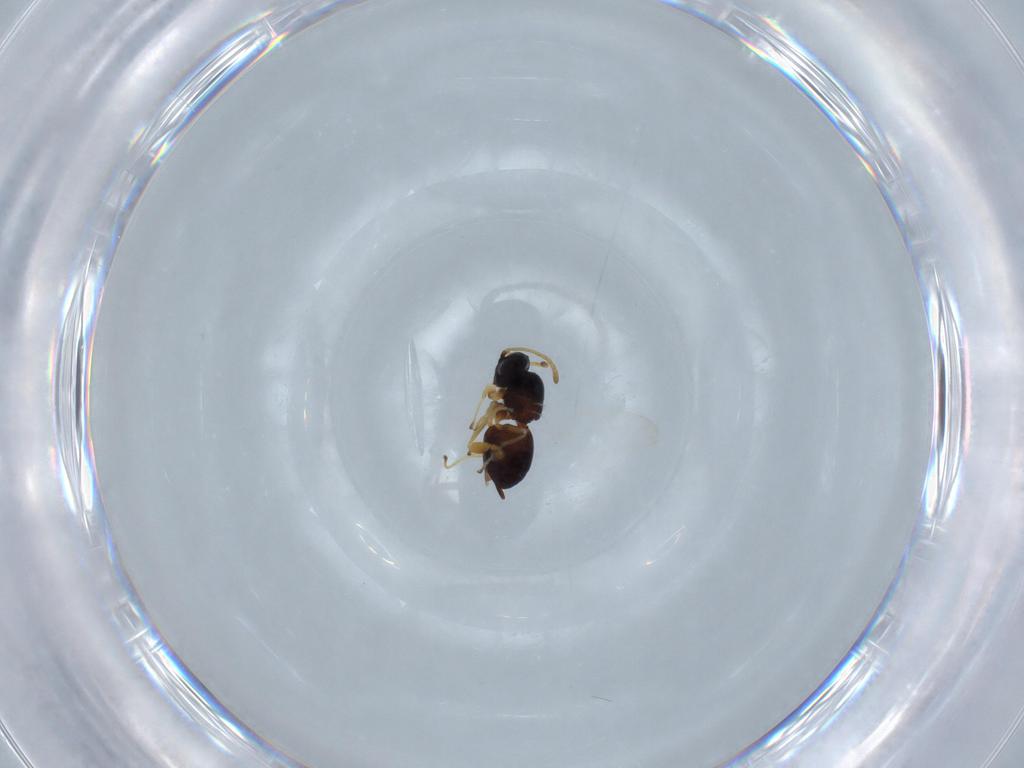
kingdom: Animalia
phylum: Arthropoda
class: Insecta
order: Hymenoptera
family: Figitidae
